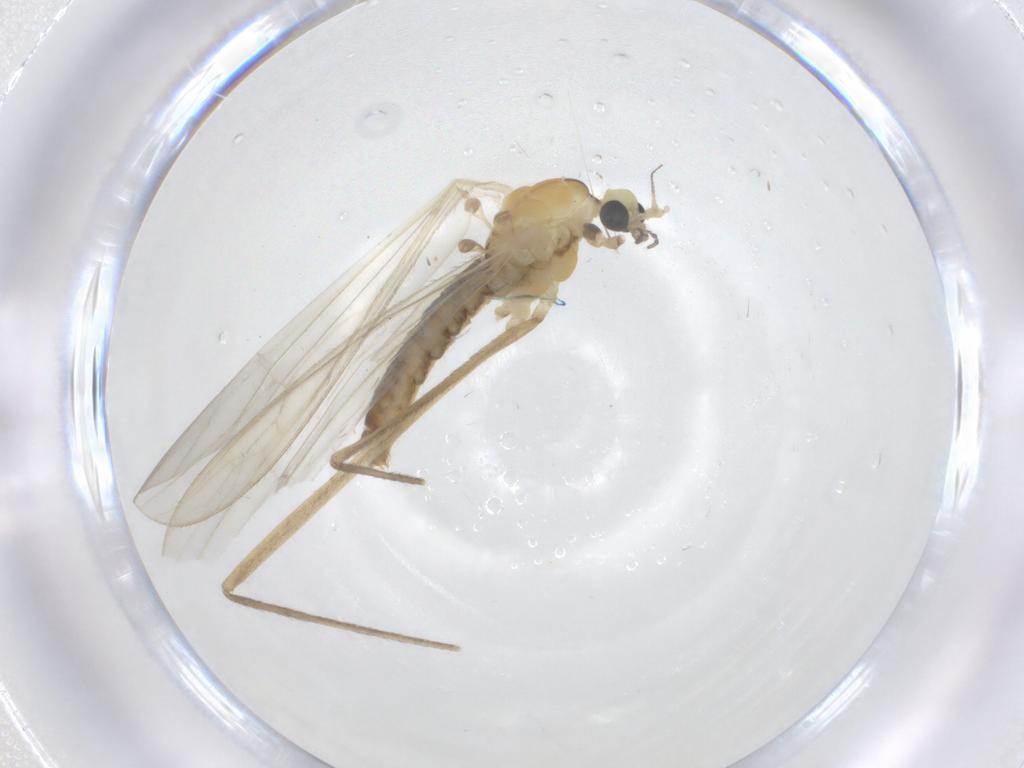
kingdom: Animalia
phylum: Arthropoda
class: Insecta
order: Diptera
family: Limoniidae
